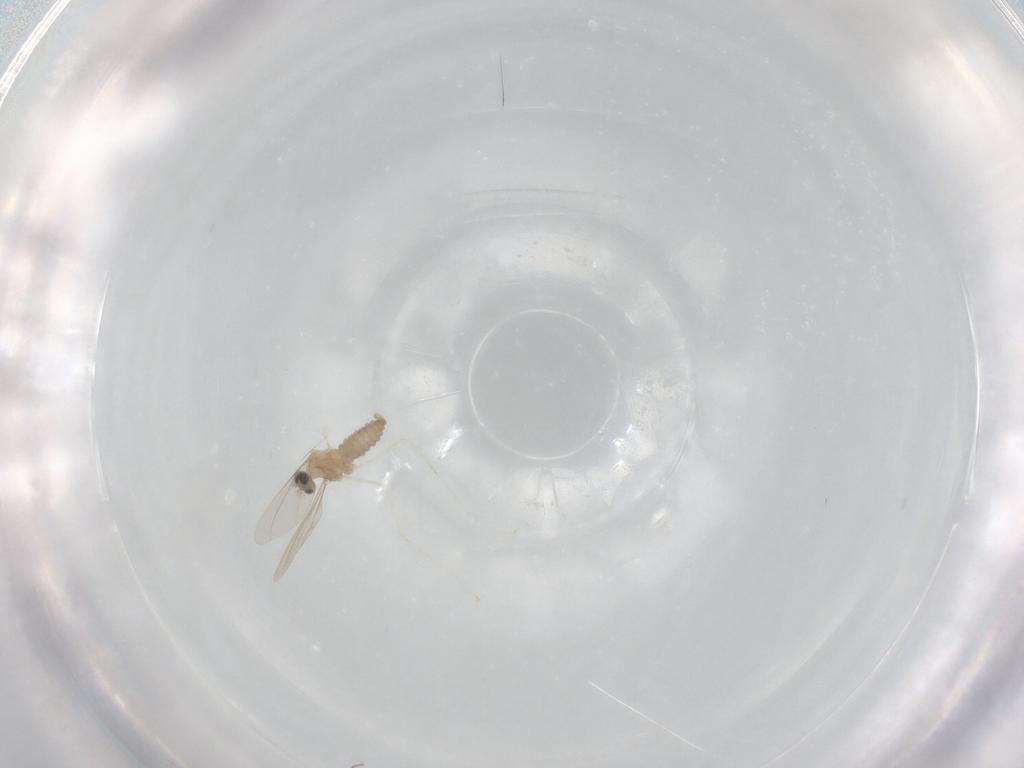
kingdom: Animalia
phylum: Arthropoda
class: Insecta
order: Diptera
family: Cecidomyiidae
